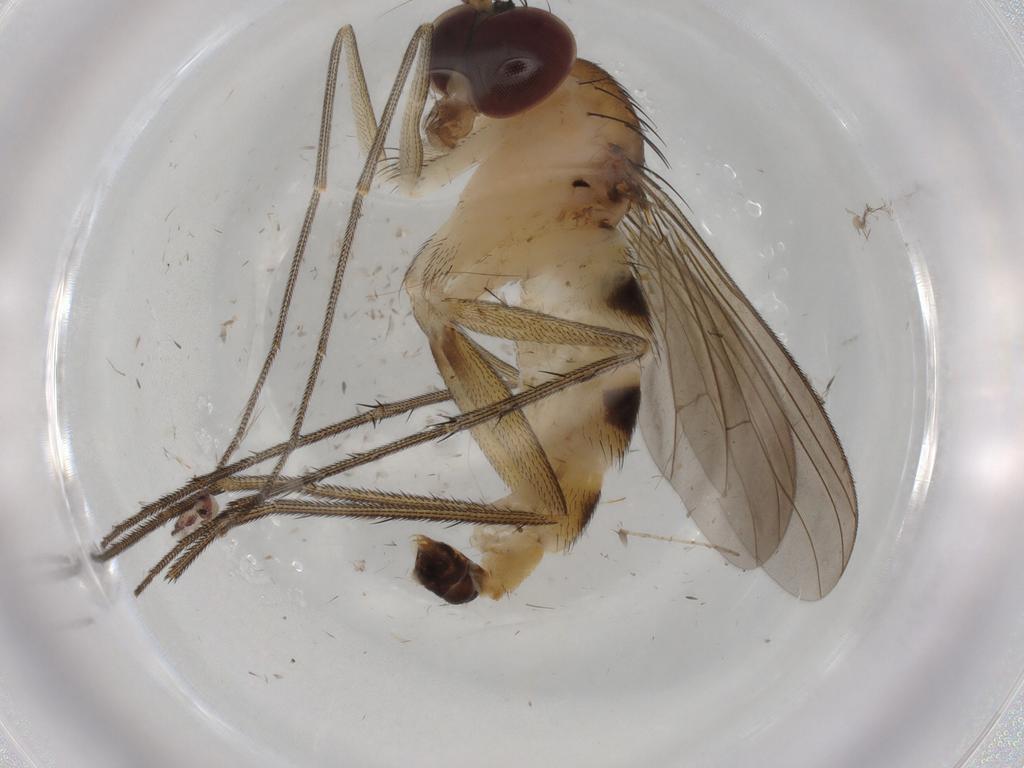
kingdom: Animalia
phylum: Arthropoda
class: Insecta
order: Diptera
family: Dolichopodidae
